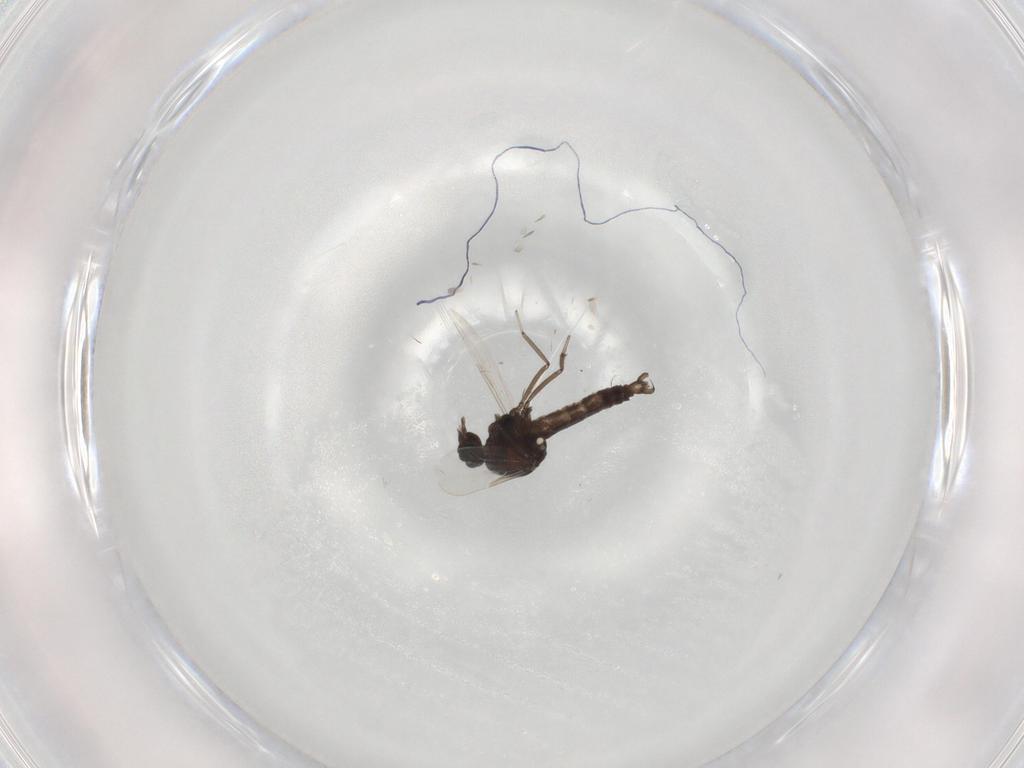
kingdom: Animalia
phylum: Arthropoda
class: Insecta
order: Diptera
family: Ceratopogonidae
